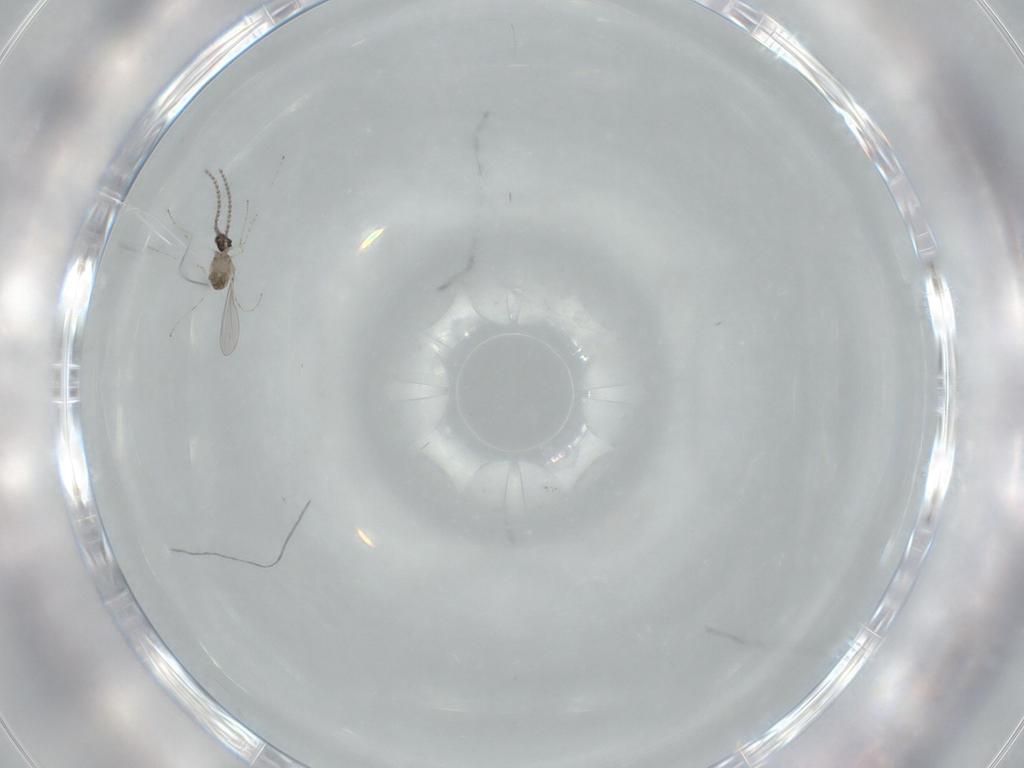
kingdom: Animalia
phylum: Arthropoda
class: Insecta
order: Diptera
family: Cecidomyiidae
